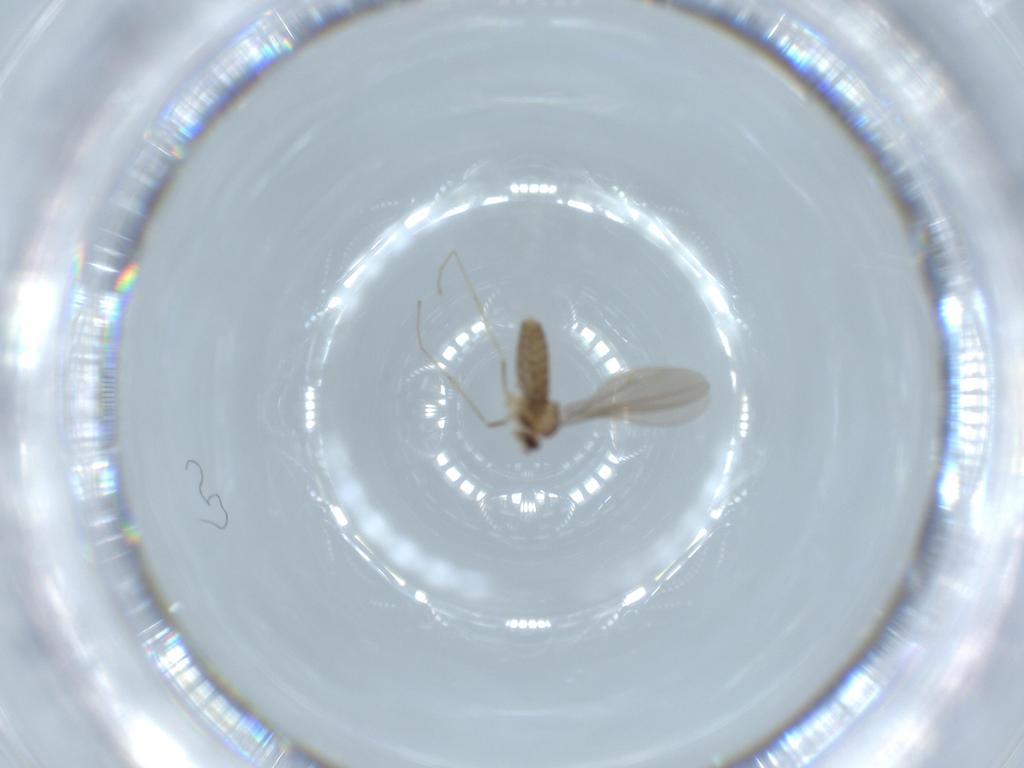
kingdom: Animalia
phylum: Arthropoda
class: Insecta
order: Diptera
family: Cecidomyiidae
